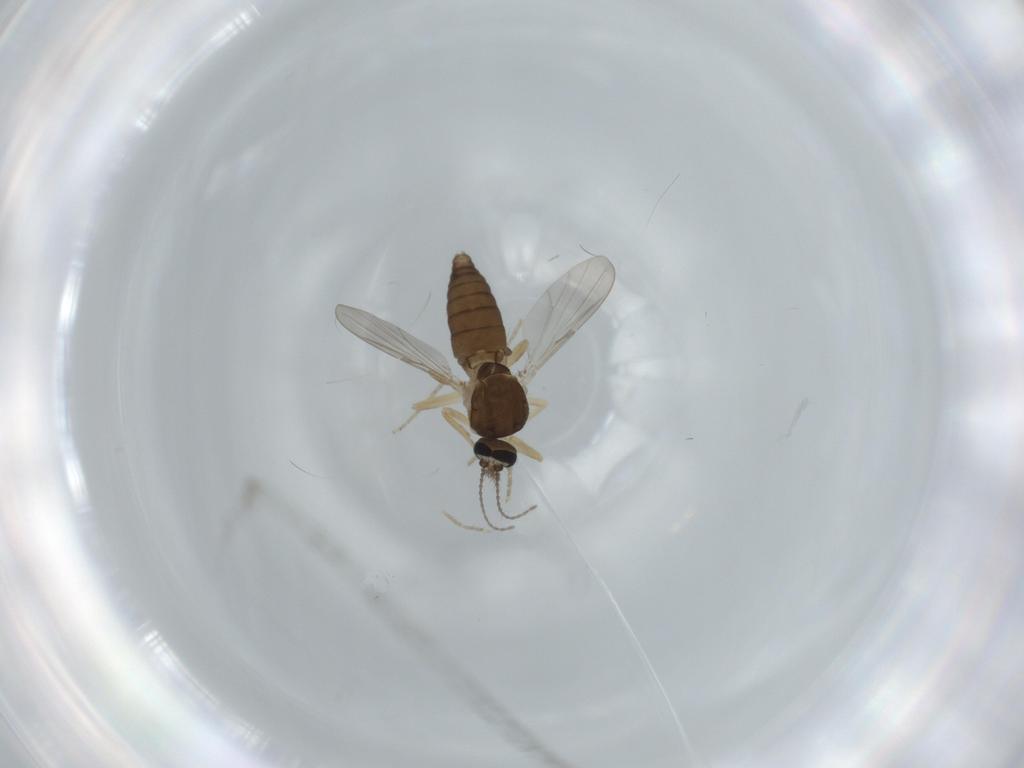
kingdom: Animalia
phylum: Arthropoda
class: Insecta
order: Diptera
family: Ceratopogonidae
